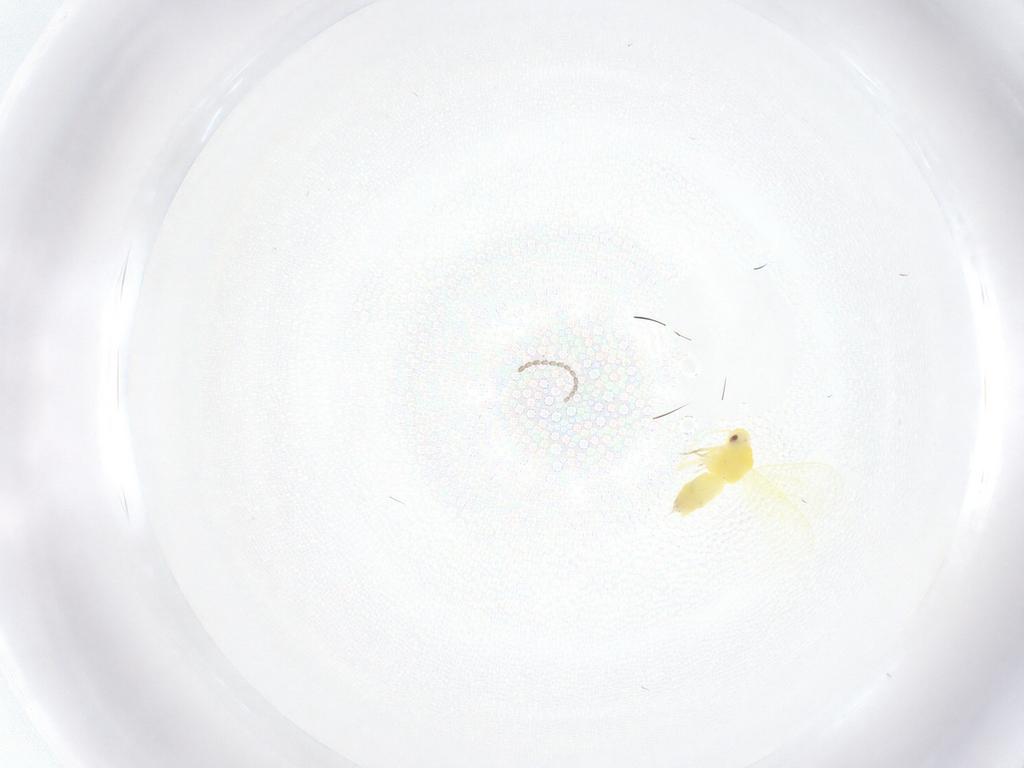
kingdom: Animalia
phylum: Arthropoda
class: Insecta
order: Diptera
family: Cecidomyiidae
